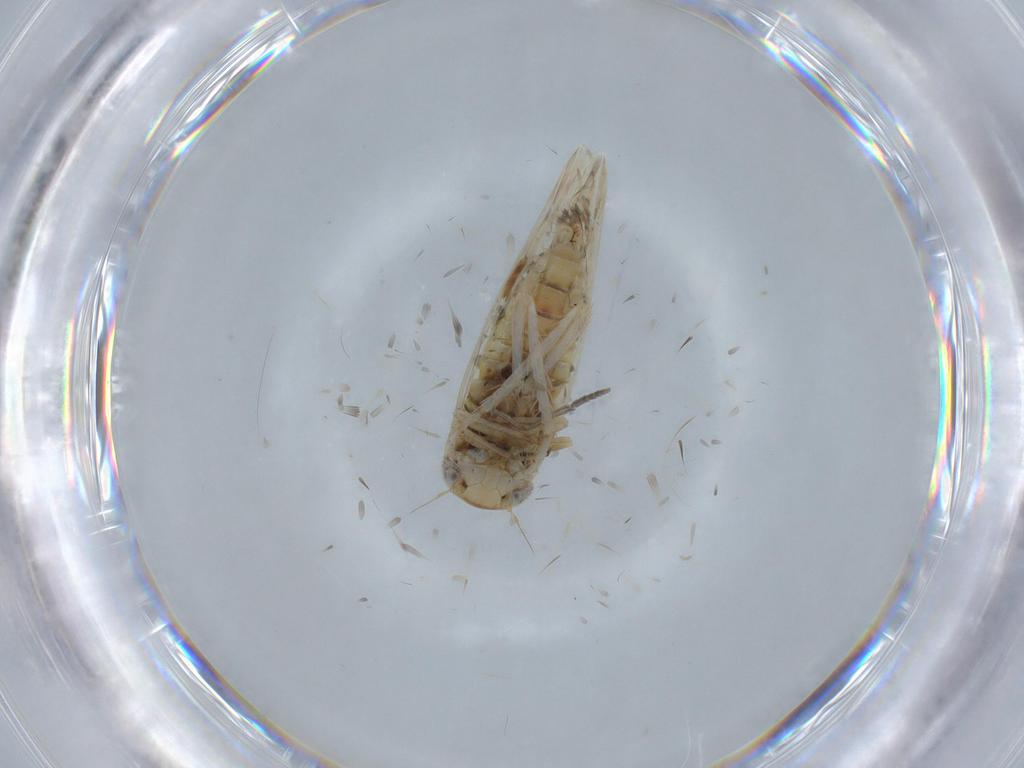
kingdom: Animalia
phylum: Arthropoda
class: Insecta
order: Hemiptera
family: Cicadellidae
